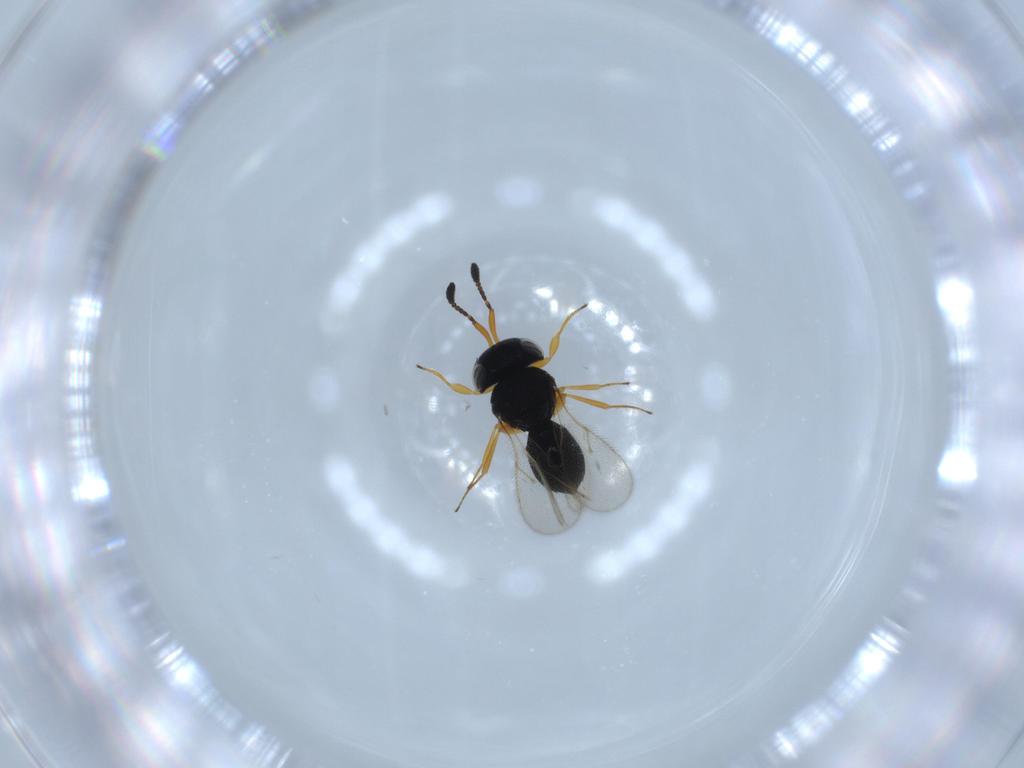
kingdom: Animalia
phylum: Arthropoda
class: Insecta
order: Hymenoptera
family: Scelionidae
